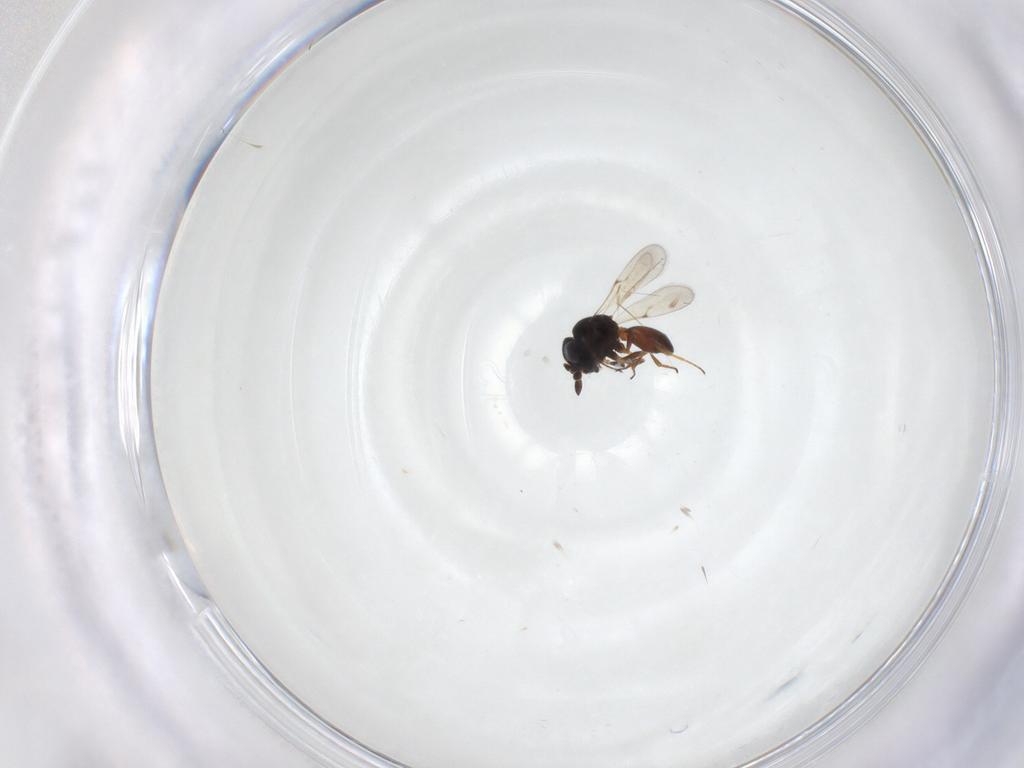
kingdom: Animalia
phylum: Arthropoda
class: Insecta
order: Hymenoptera
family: Scelionidae
